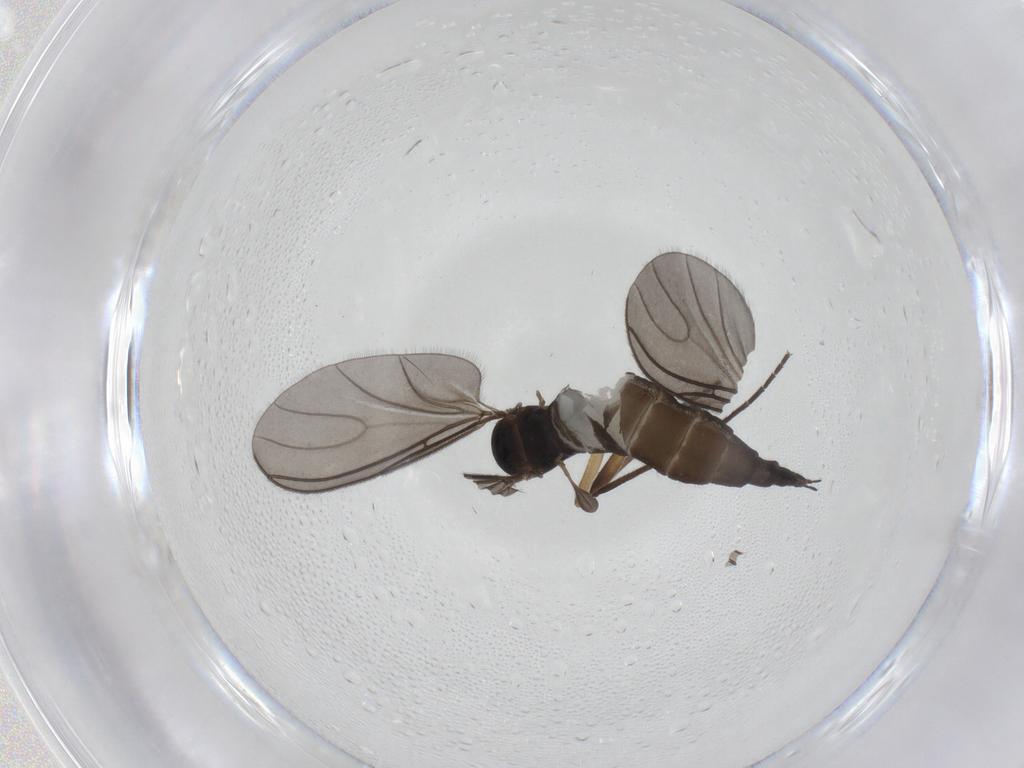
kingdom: Animalia
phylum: Arthropoda
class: Insecta
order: Diptera
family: Sciaridae
